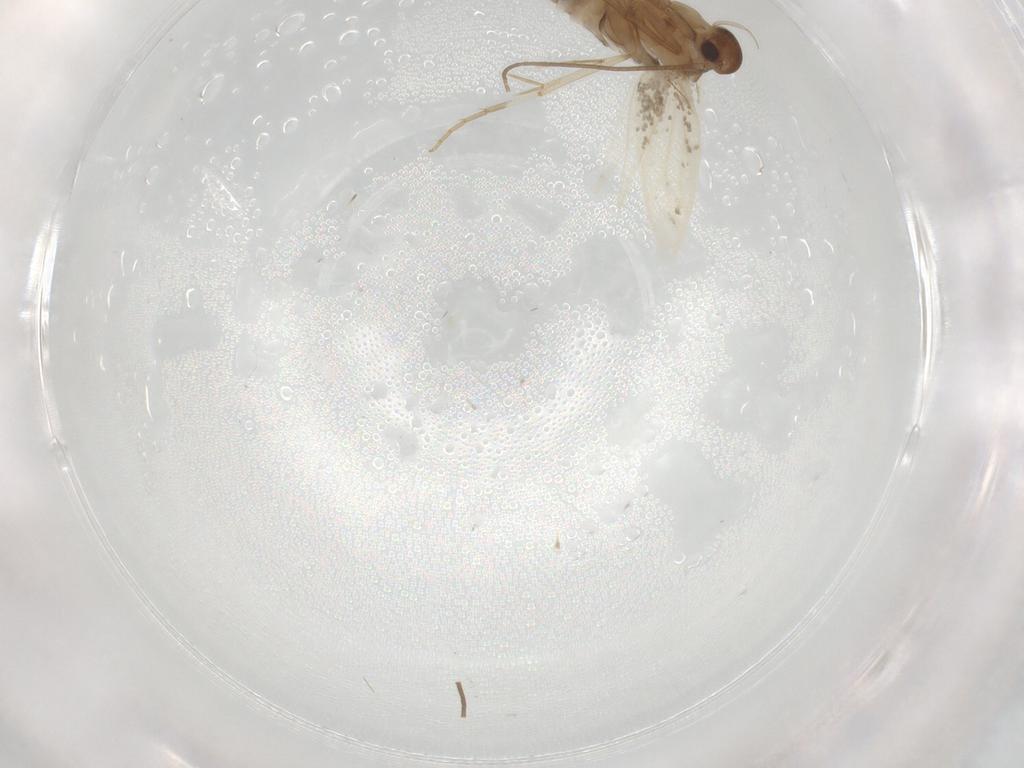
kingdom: Animalia
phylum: Arthropoda
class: Insecta
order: Lepidoptera
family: Elachistidae
